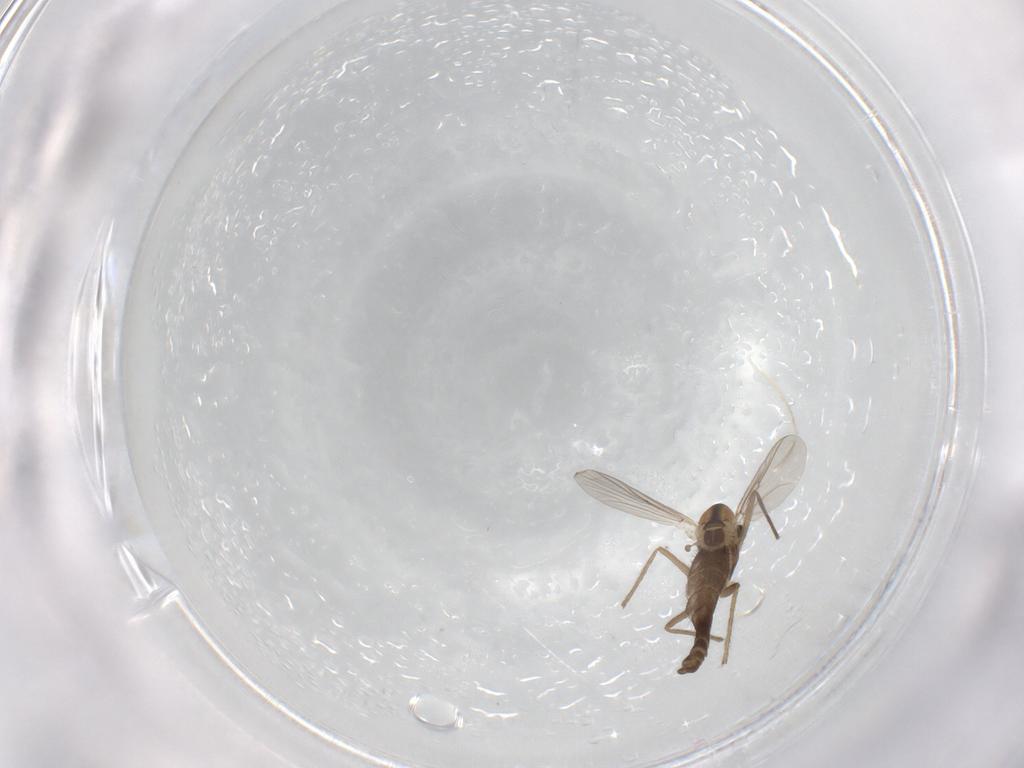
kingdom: Animalia
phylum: Arthropoda
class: Insecta
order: Diptera
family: Chironomidae
